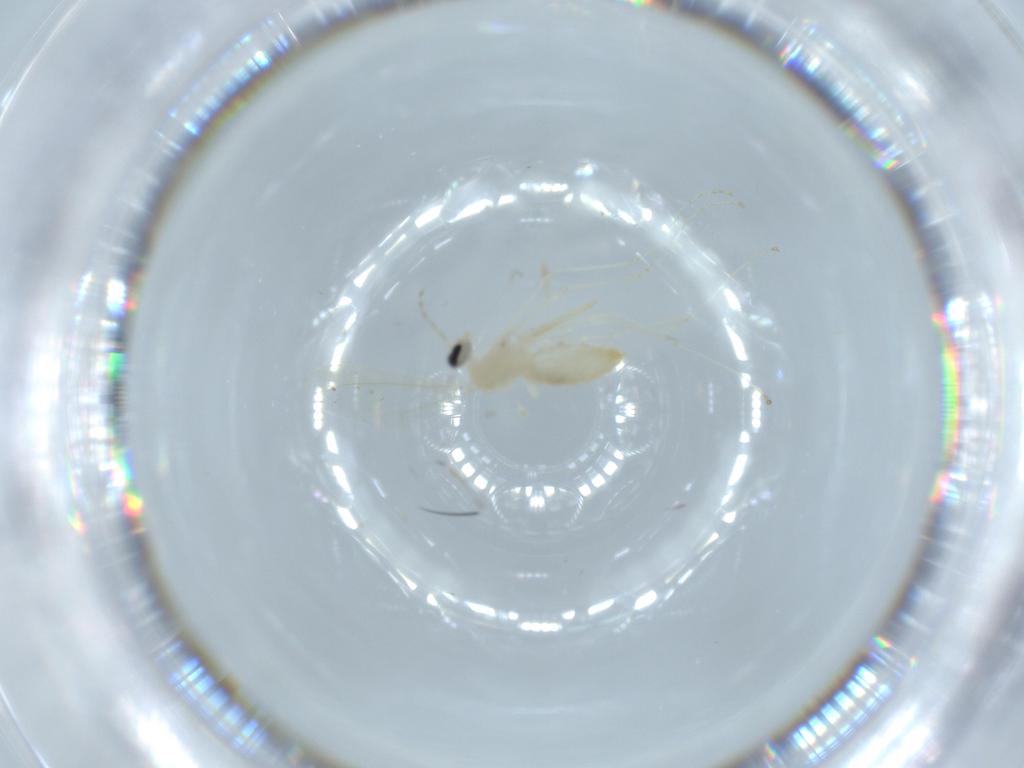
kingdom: Animalia
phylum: Arthropoda
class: Insecta
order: Diptera
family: Cecidomyiidae
